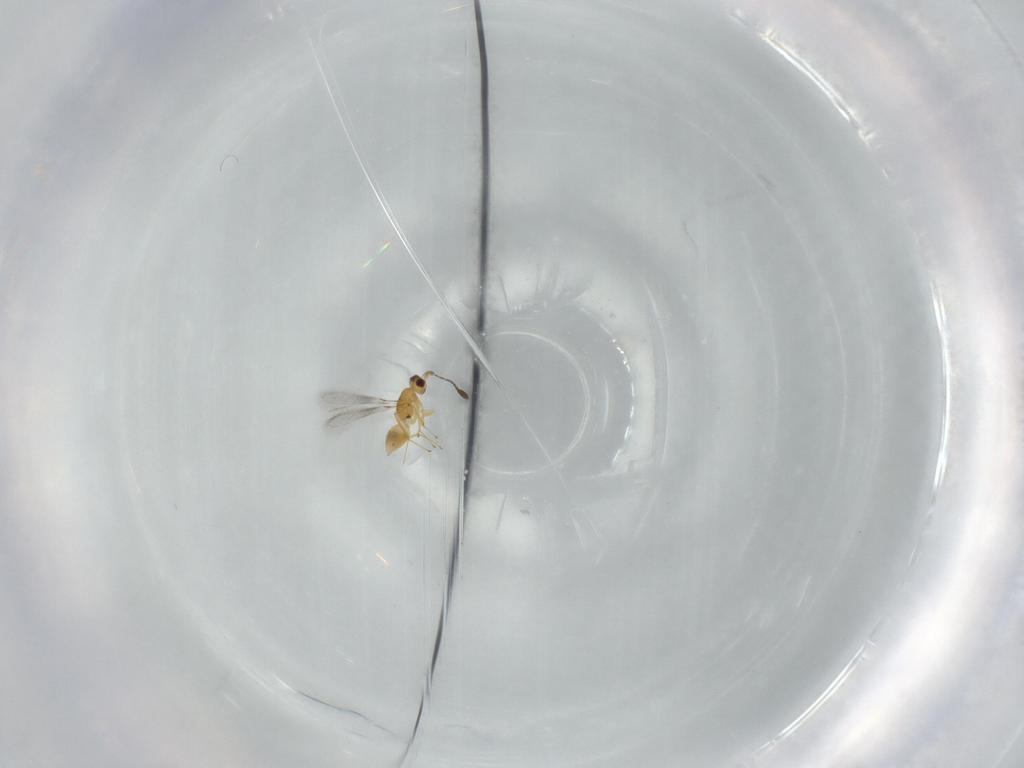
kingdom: Animalia
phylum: Arthropoda
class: Insecta
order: Hymenoptera
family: Mymaridae
